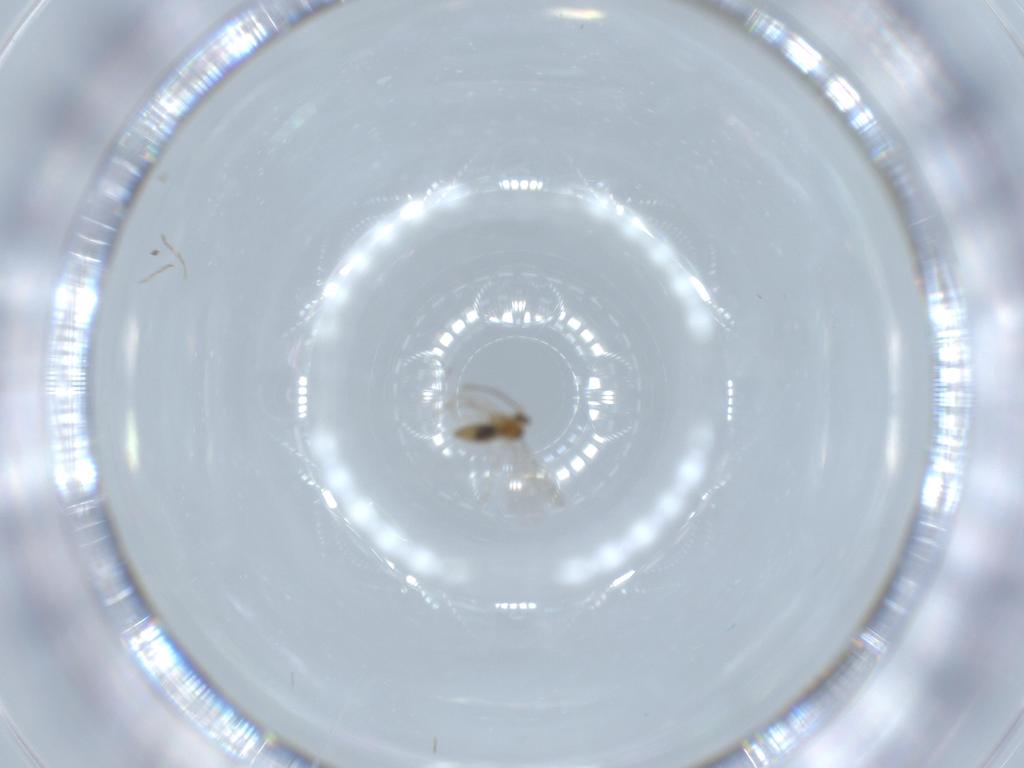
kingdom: Animalia
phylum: Arthropoda
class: Insecta
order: Diptera
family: Cecidomyiidae
